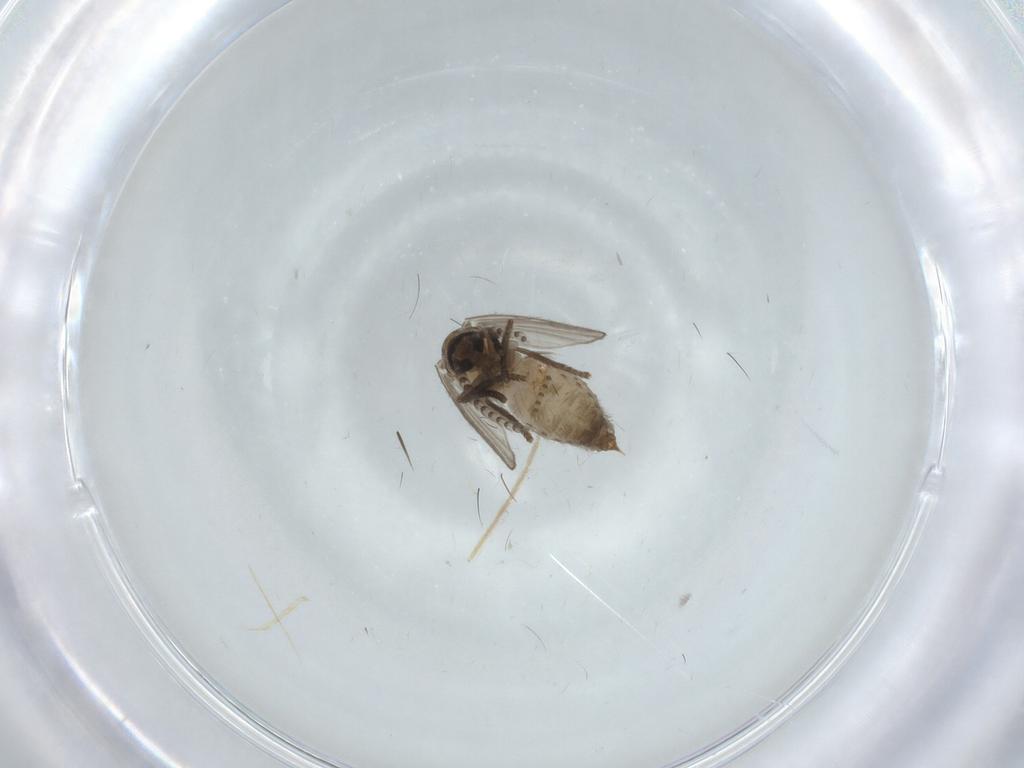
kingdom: Animalia
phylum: Arthropoda
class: Insecta
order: Diptera
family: Psychodidae
